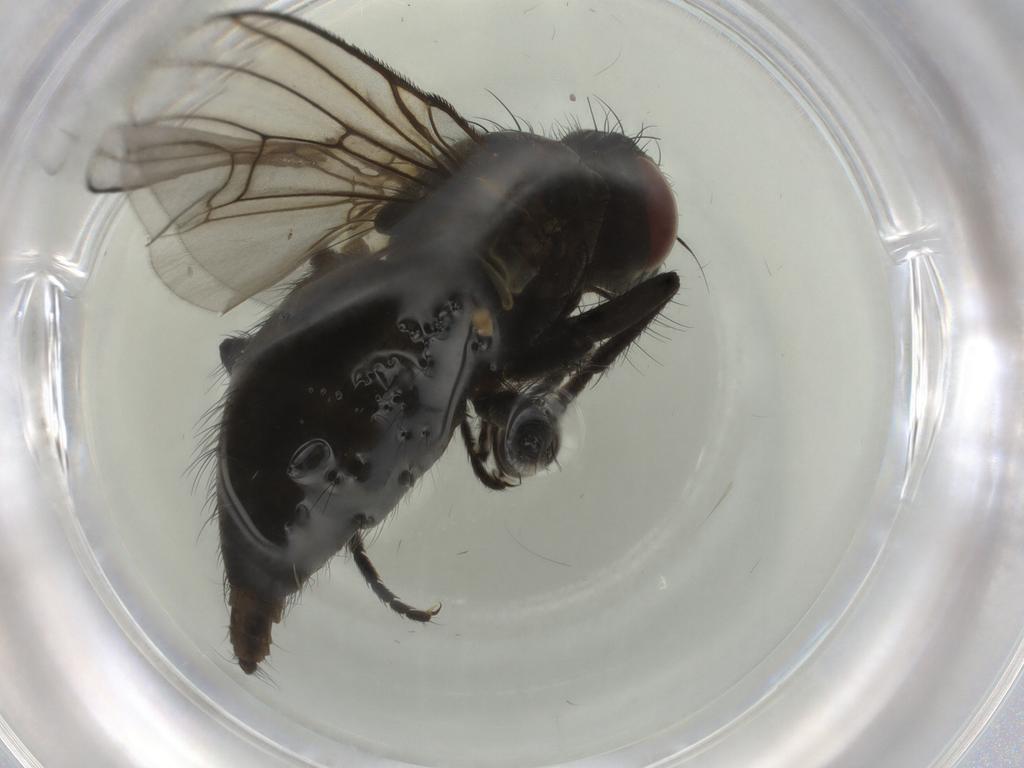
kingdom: Animalia
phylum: Arthropoda
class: Insecta
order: Diptera
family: Muscidae
